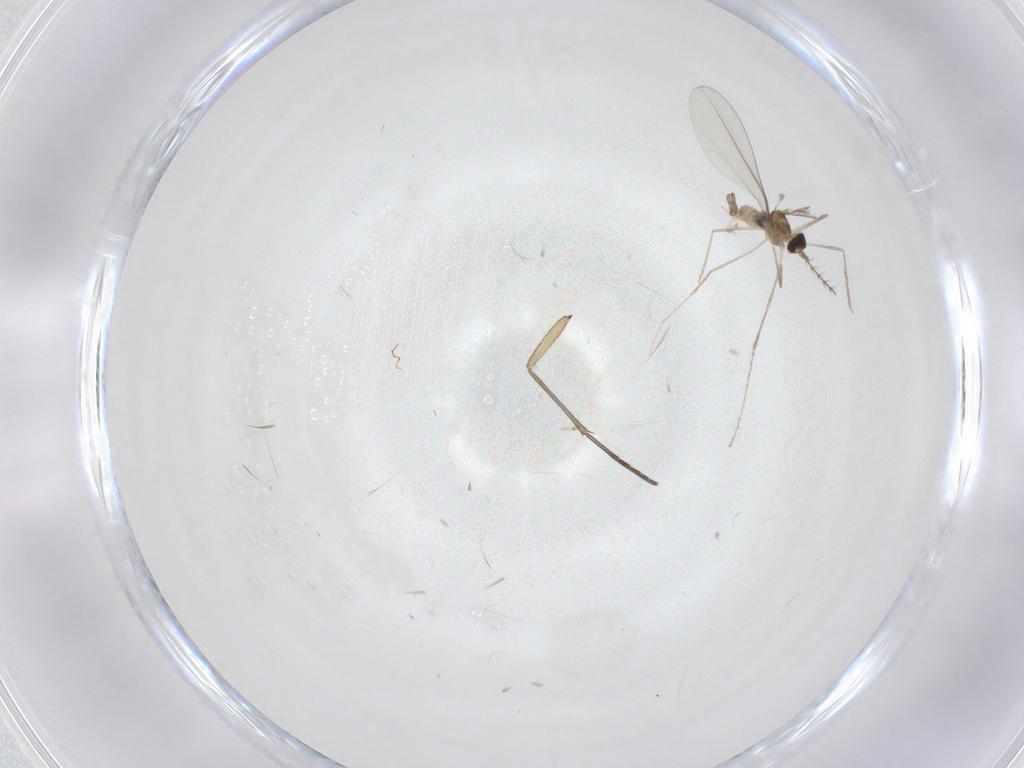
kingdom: Animalia
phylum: Arthropoda
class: Insecta
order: Diptera
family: Sciaridae
